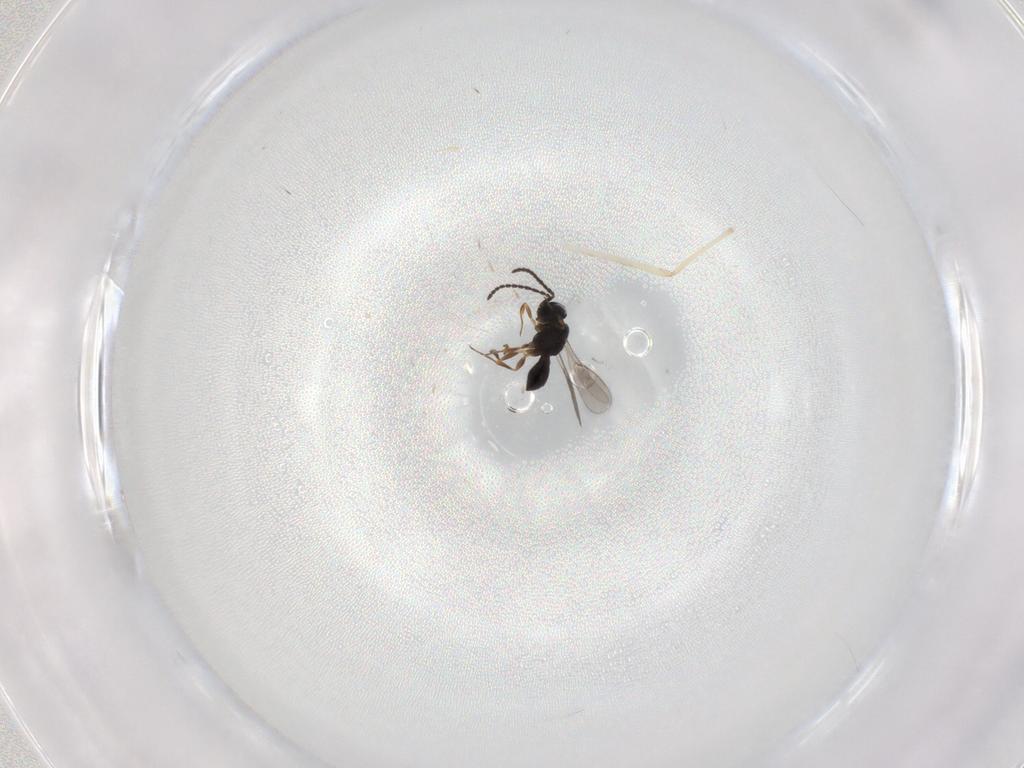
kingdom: Animalia
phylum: Arthropoda
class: Insecta
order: Hymenoptera
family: Scelionidae
